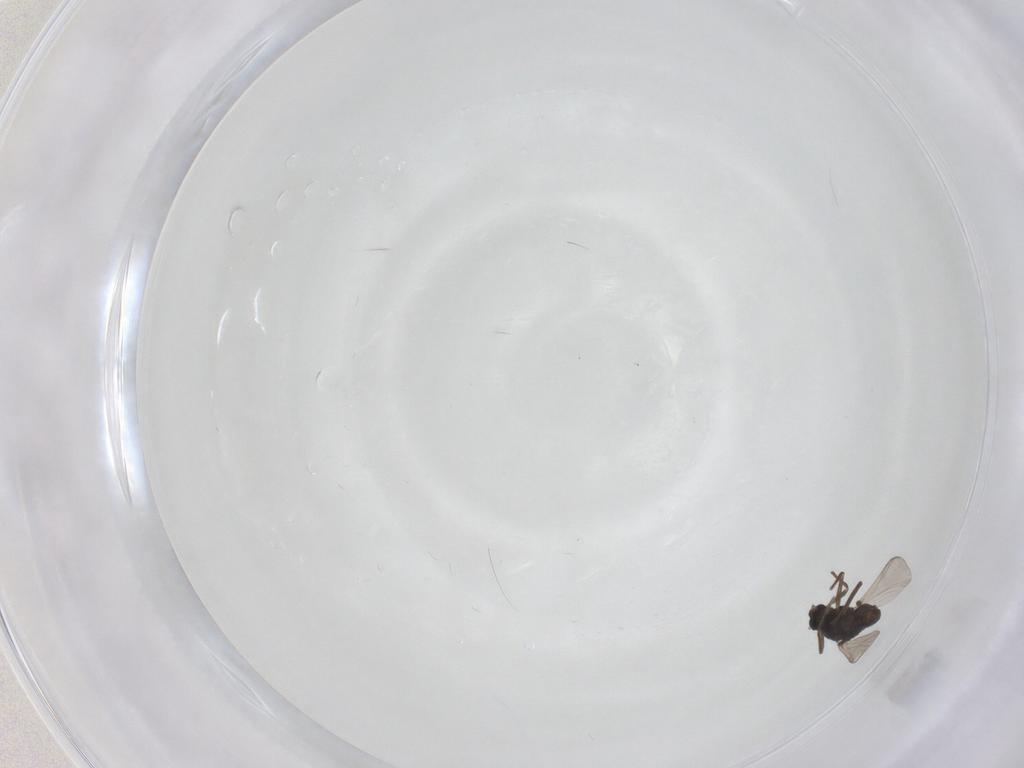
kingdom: Animalia
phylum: Arthropoda
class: Insecta
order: Diptera
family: Chironomidae
